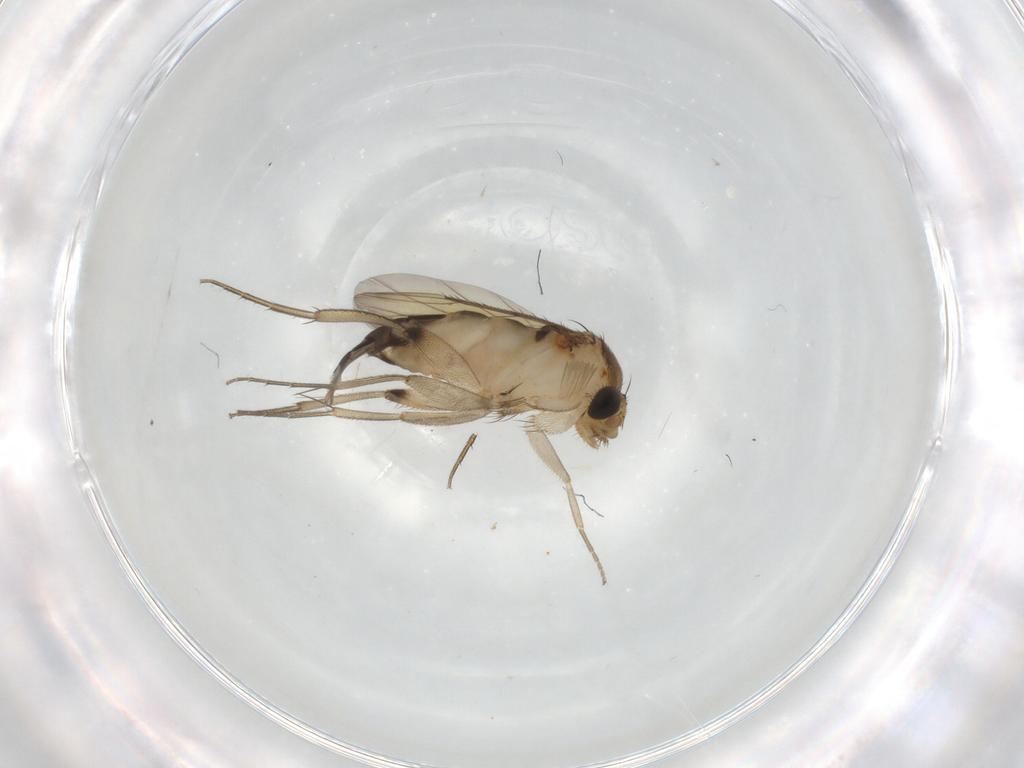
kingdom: Animalia
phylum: Arthropoda
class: Insecta
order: Diptera
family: Phoridae
